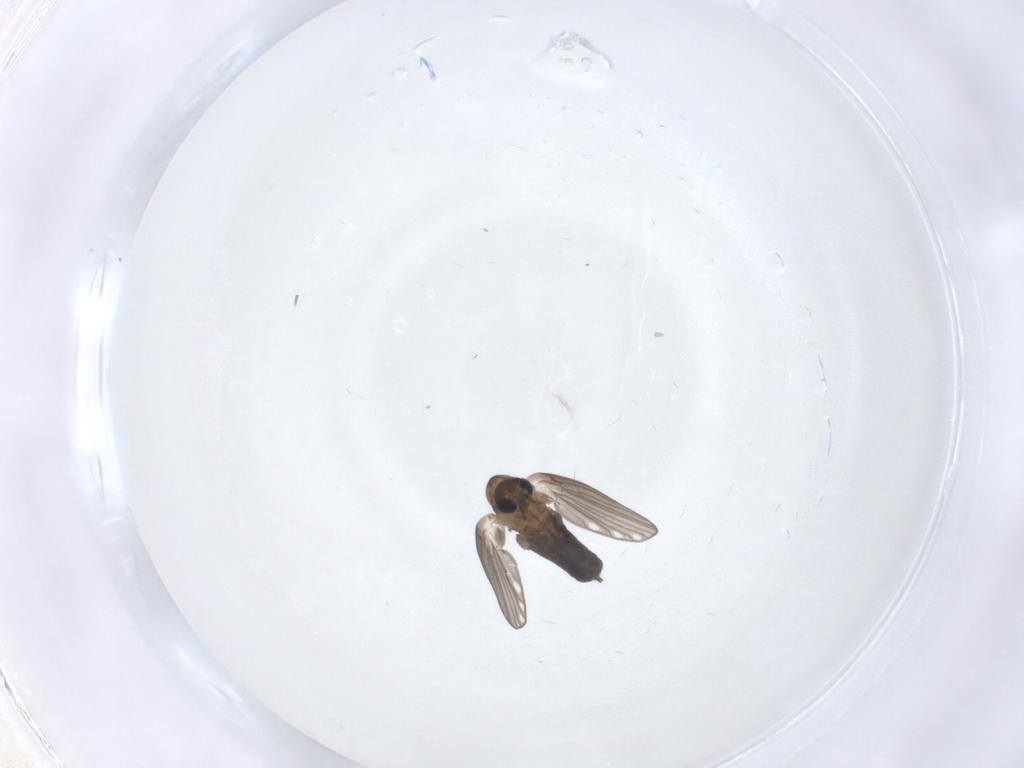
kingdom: Animalia
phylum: Arthropoda
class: Insecta
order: Diptera
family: Psychodidae
